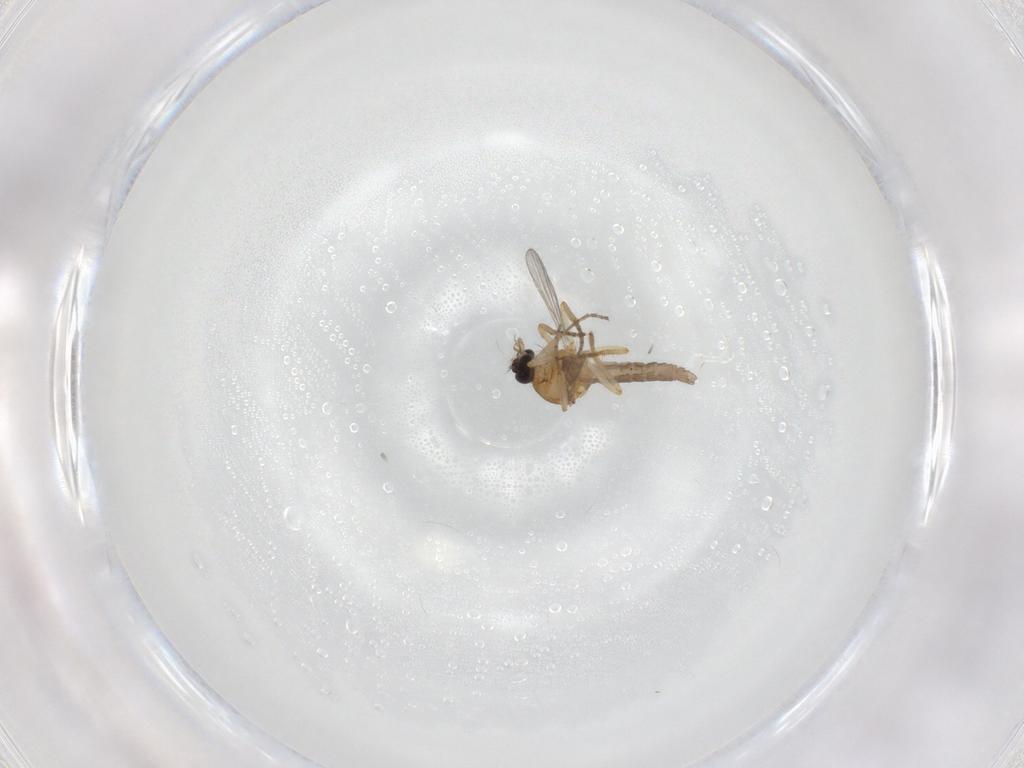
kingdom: Animalia
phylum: Arthropoda
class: Insecta
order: Diptera
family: Ceratopogonidae
